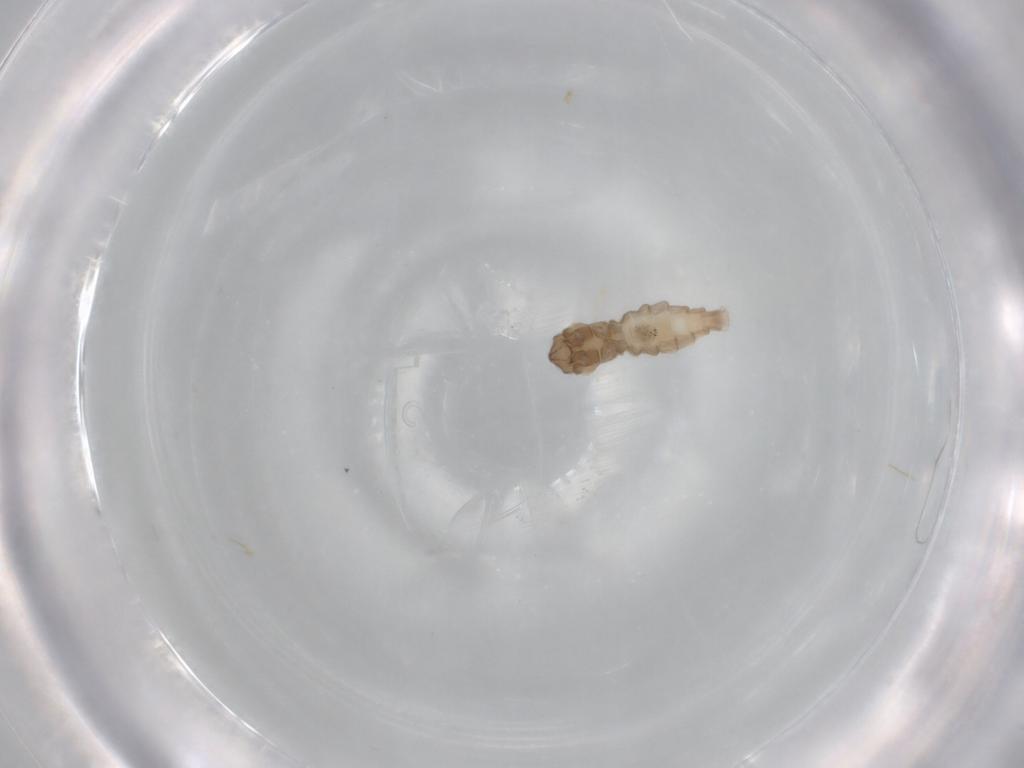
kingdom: Animalia
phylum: Arthropoda
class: Insecta
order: Diptera
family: Cecidomyiidae
